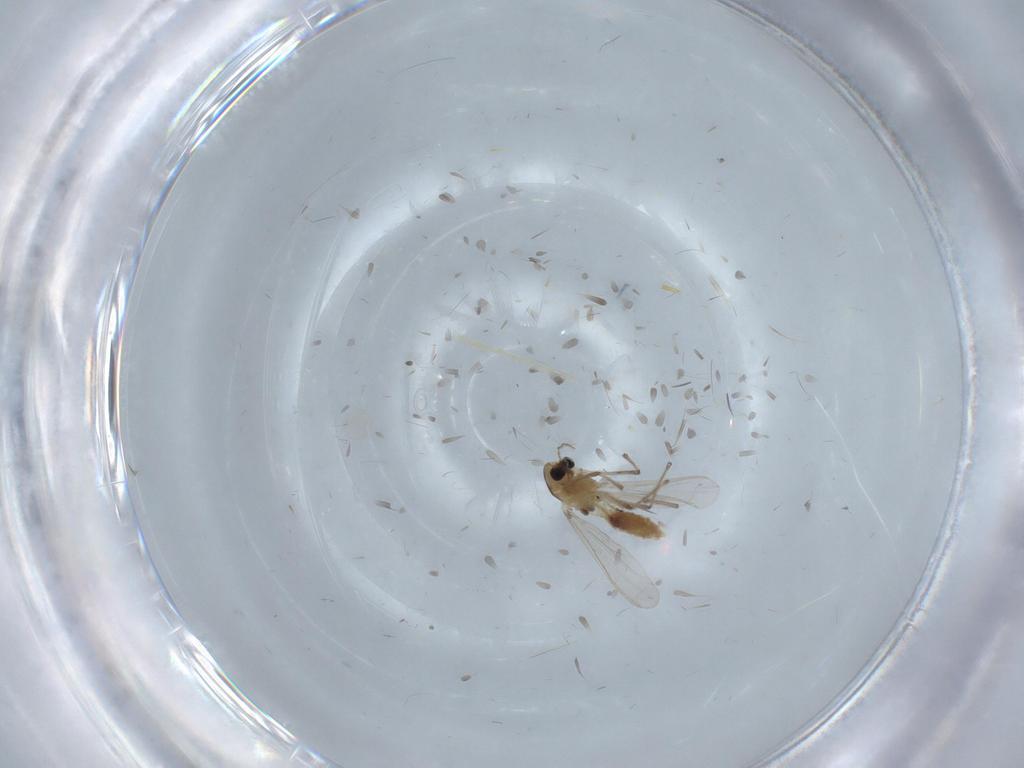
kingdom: Animalia
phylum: Arthropoda
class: Insecta
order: Diptera
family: Chironomidae
